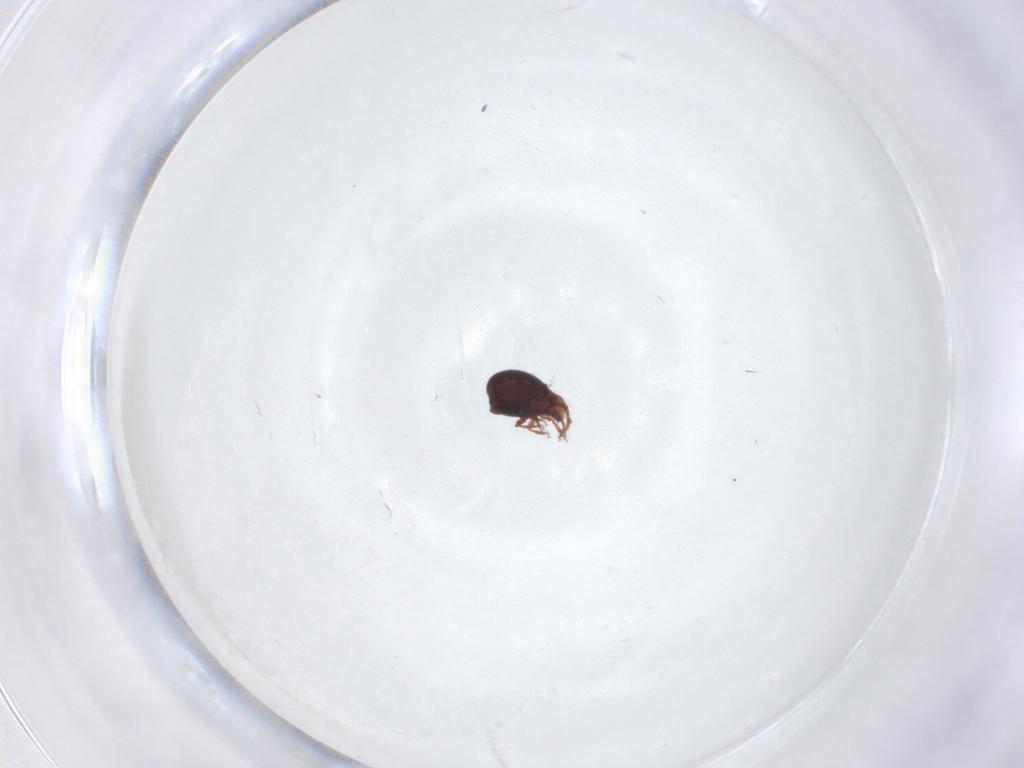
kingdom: Animalia
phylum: Arthropoda
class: Arachnida
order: Sarcoptiformes
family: Ceratozetidae
